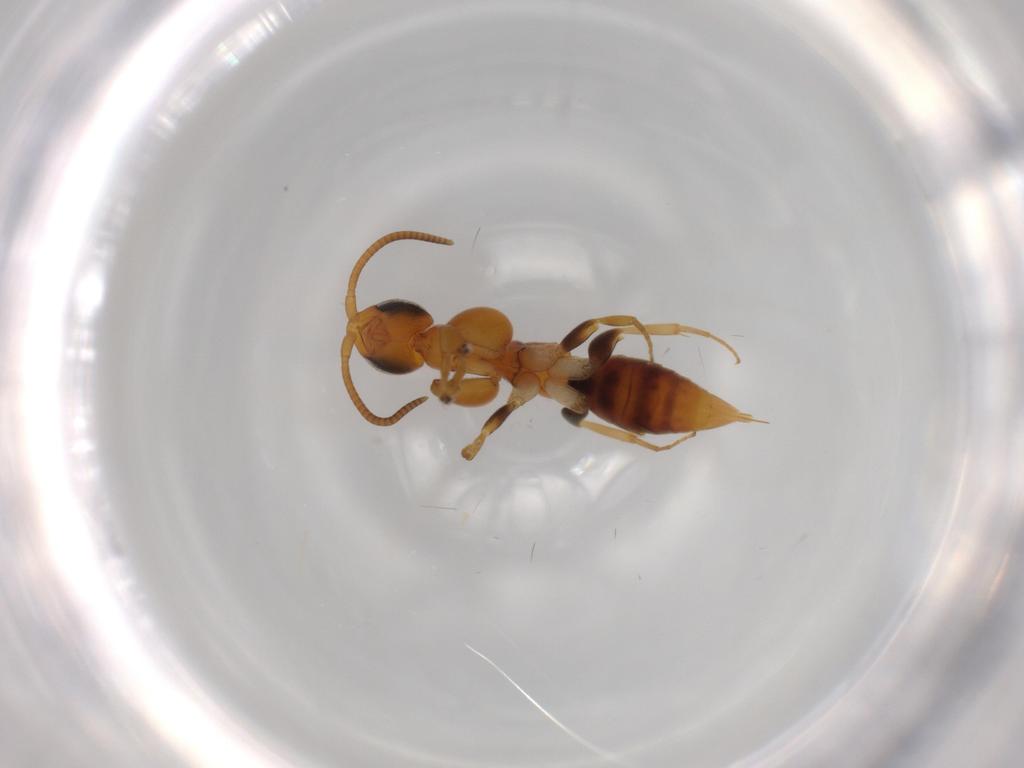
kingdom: Animalia
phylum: Arthropoda
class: Insecta
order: Hymenoptera
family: Sclerogibbidae
